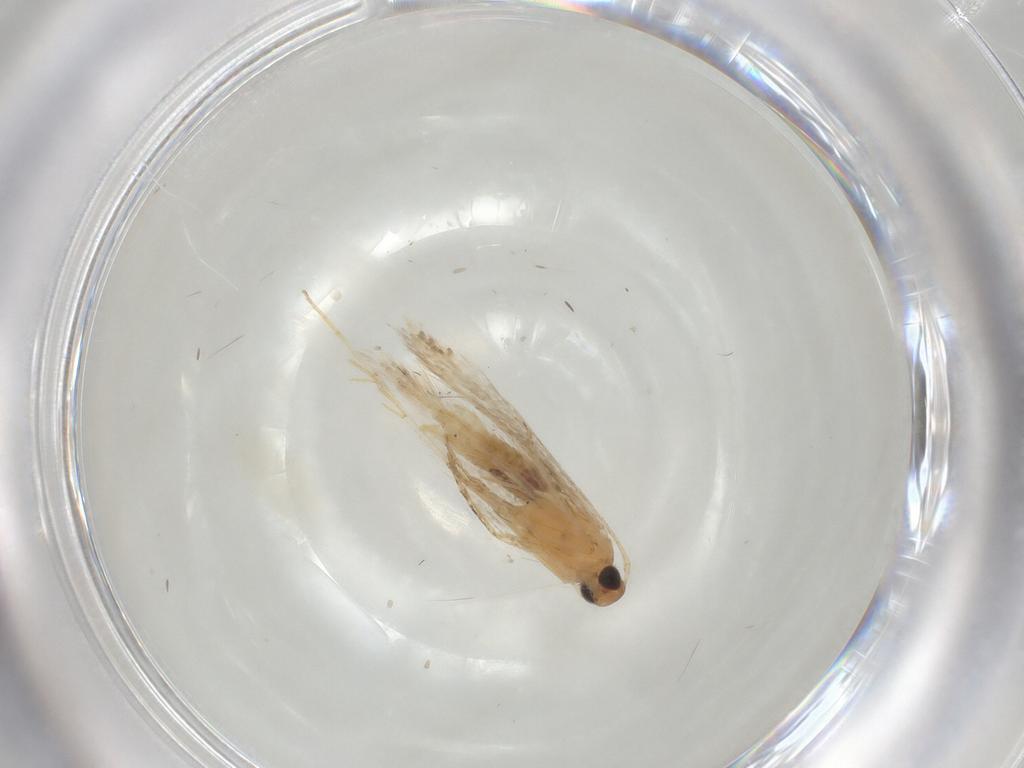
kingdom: Animalia
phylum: Arthropoda
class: Insecta
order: Lepidoptera
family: Gelechiidae
